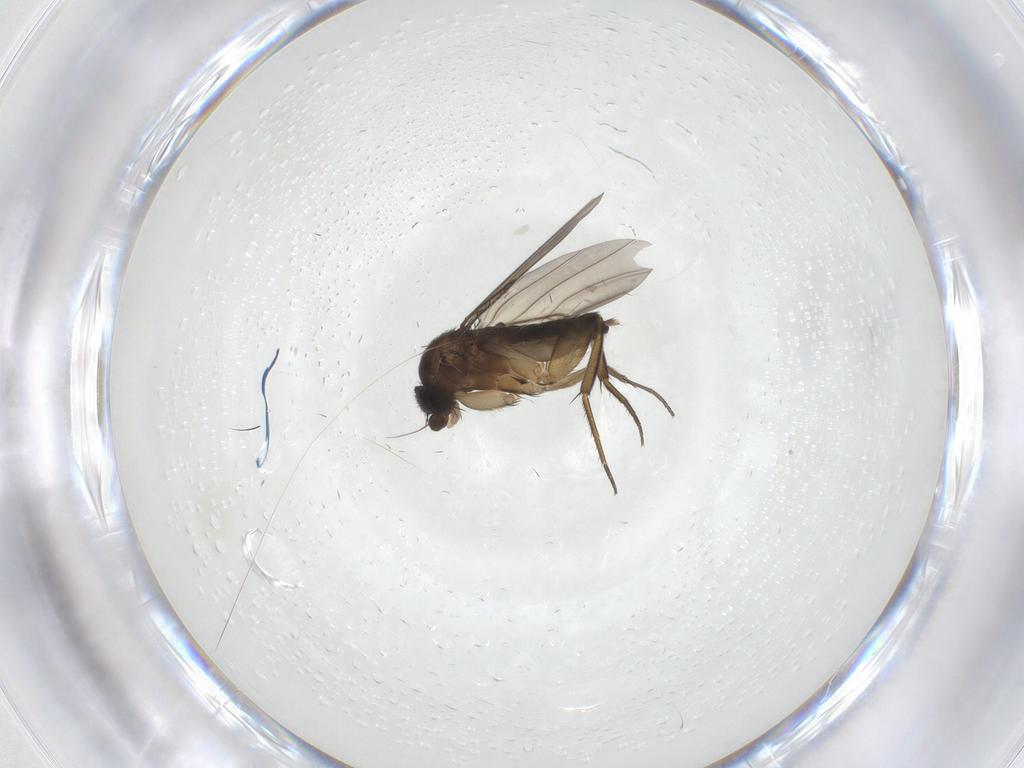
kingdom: Animalia
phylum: Arthropoda
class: Insecta
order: Diptera
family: Phoridae
